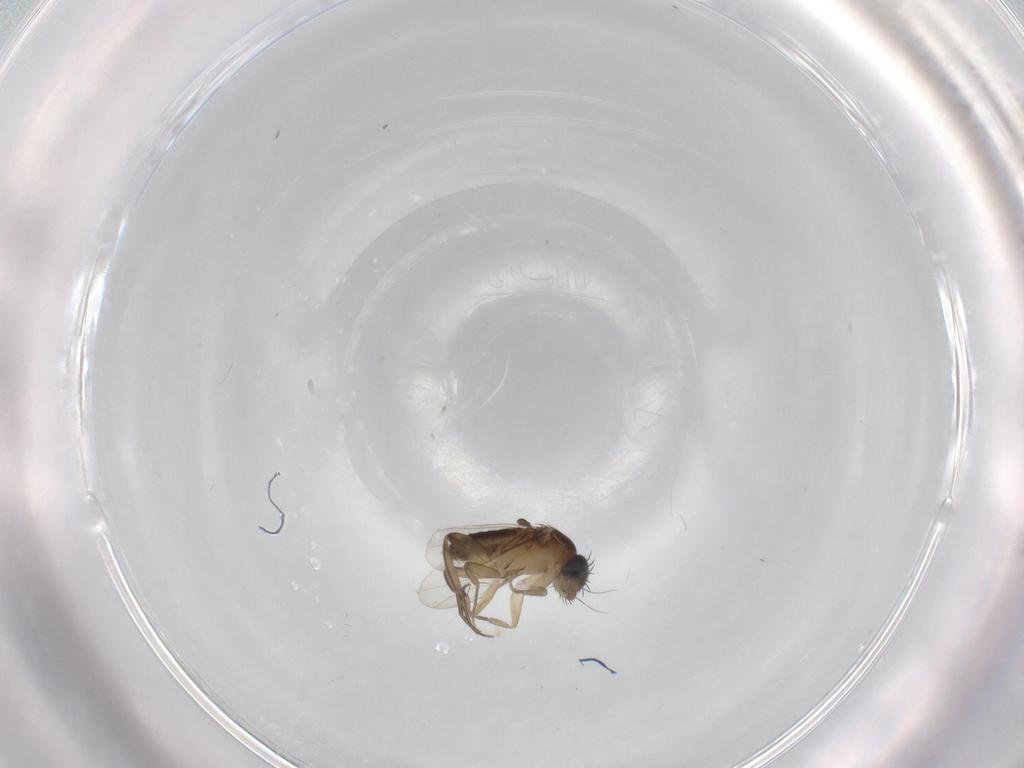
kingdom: Animalia
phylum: Arthropoda
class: Insecta
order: Diptera
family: Phoridae
